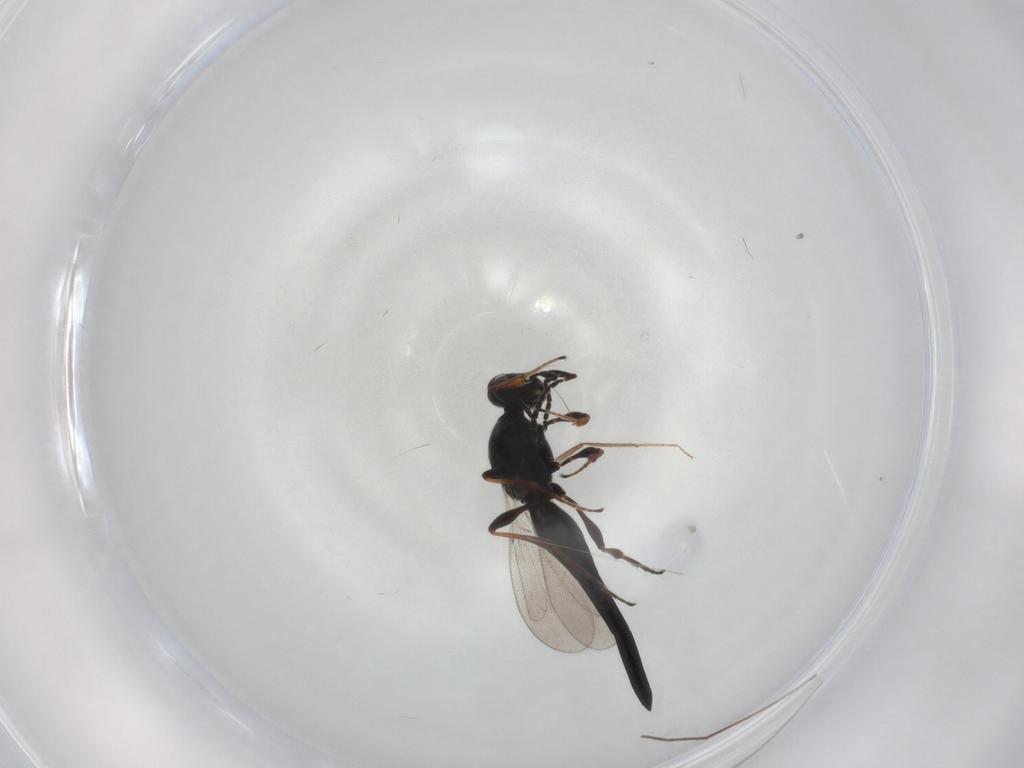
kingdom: Animalia
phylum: Arthropoda
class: Insecta
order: Hymenoptera
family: Platygastridae
